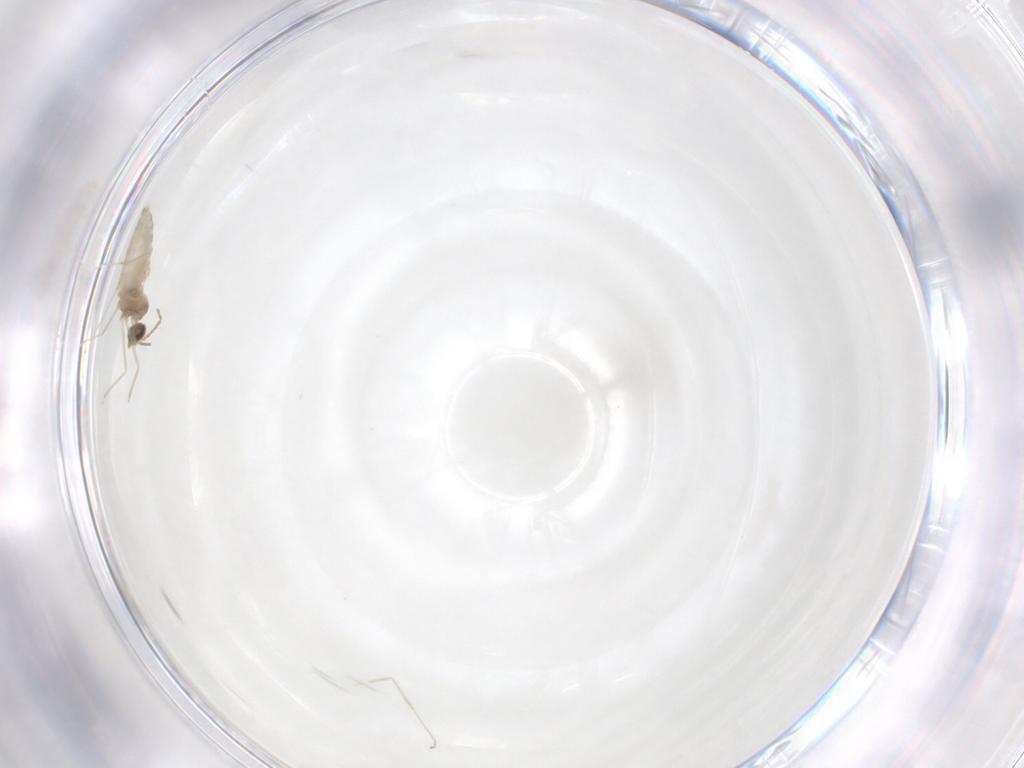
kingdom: Animalia
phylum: Arthropoda
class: Insecta
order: Diptera
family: Cecidomyiidae
